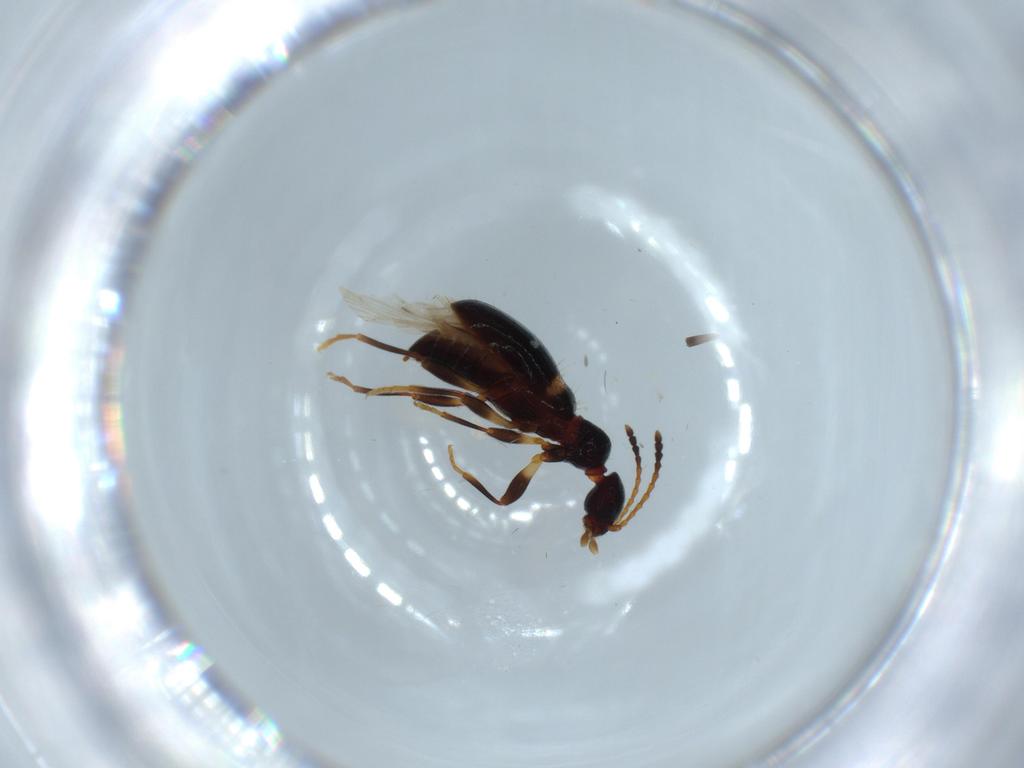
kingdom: Animalia
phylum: Arthropoda
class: Insecta
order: Coleoptera
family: Anthicidae
